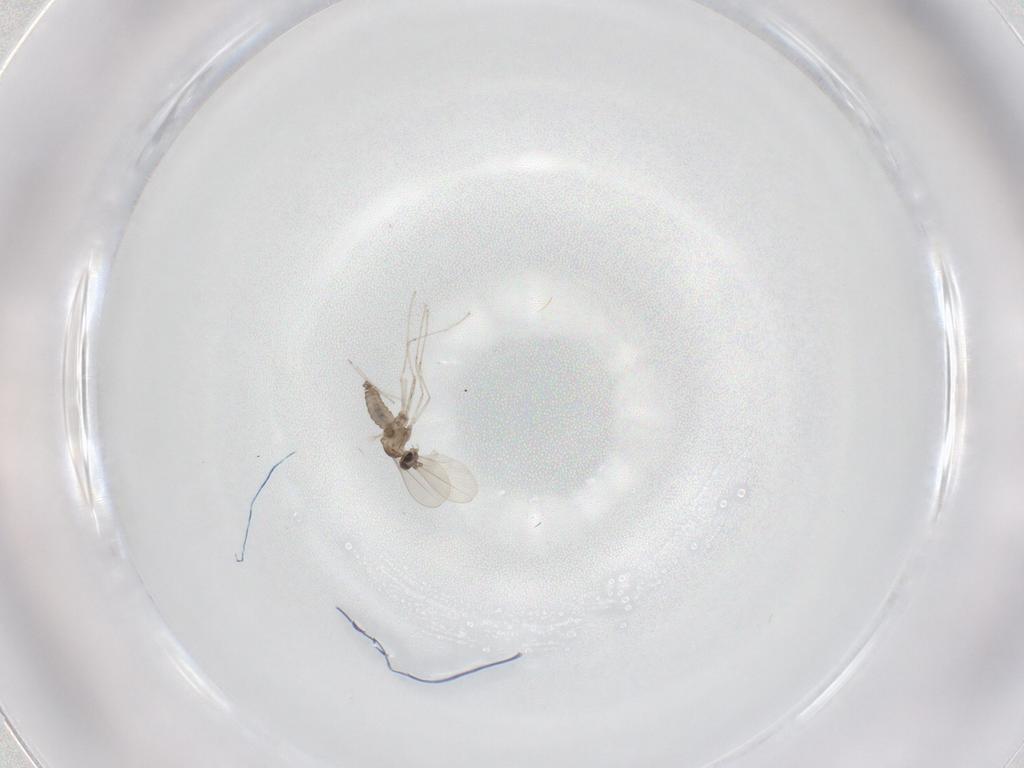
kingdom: Animalia
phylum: Arthropoda
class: Insecta
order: Diptera
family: Cecidomyiidae
